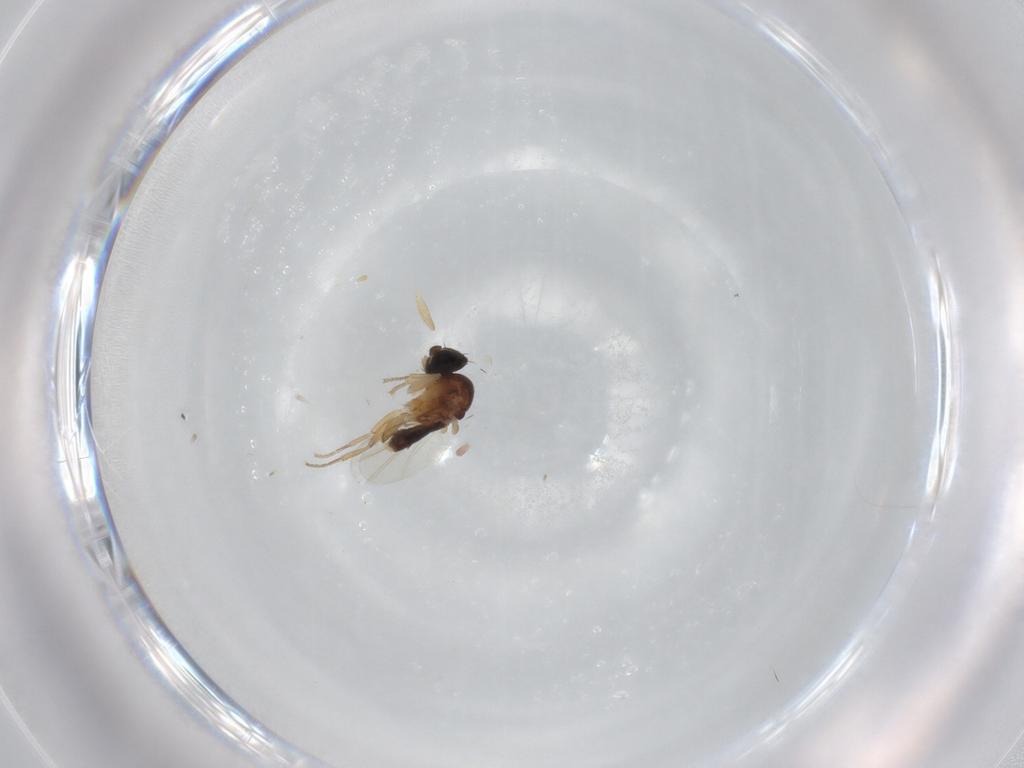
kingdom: Animalia
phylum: Arthropoda
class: Insecta
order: Diptera
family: Phoridae
